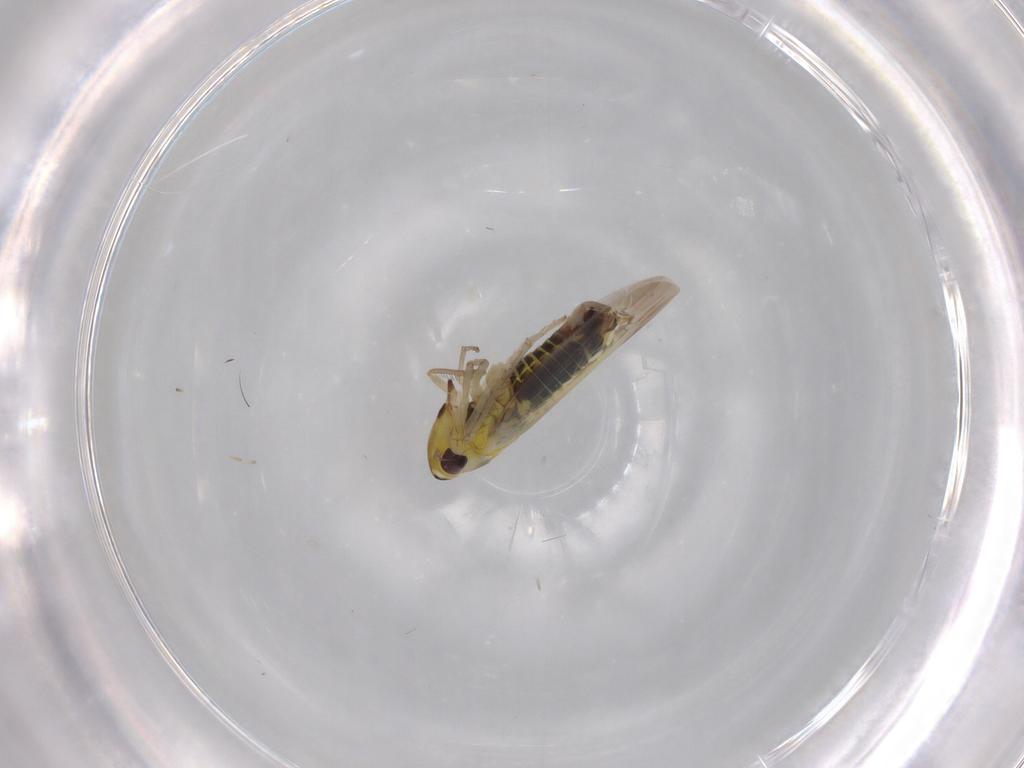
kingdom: Animalia
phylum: Arthropoda
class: Insecta
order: Hemiptera
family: Cicadellidae
